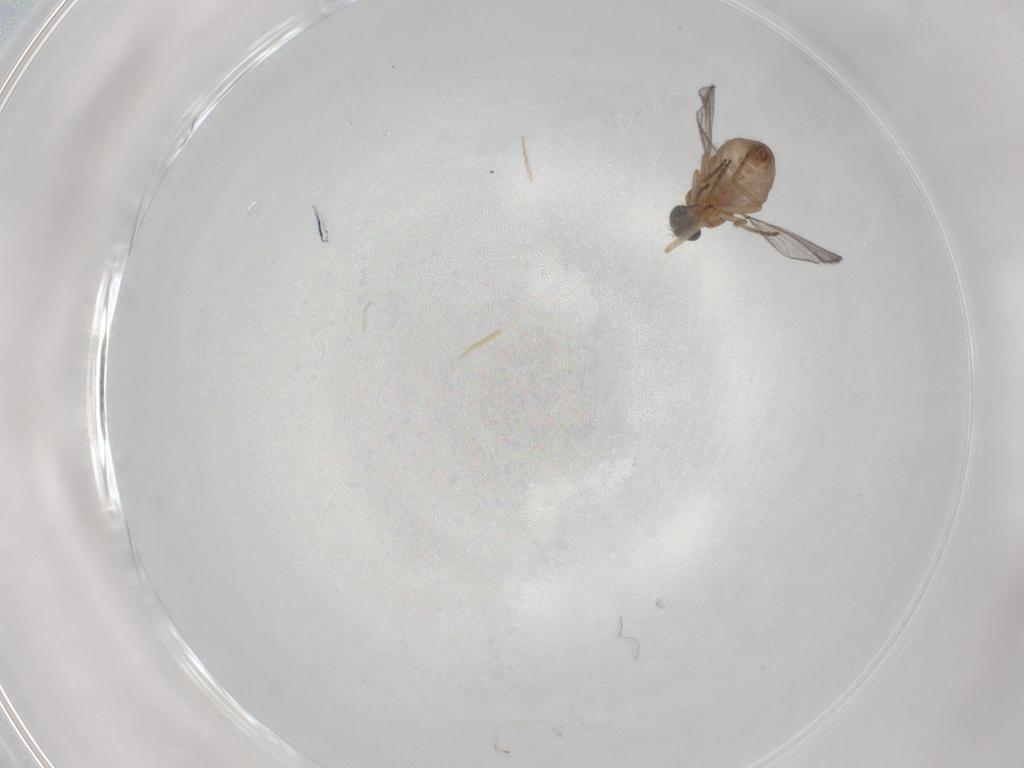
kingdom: Animalia
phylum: Arthropoda
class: Insecta
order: Diptera
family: Ceratopogonidae
